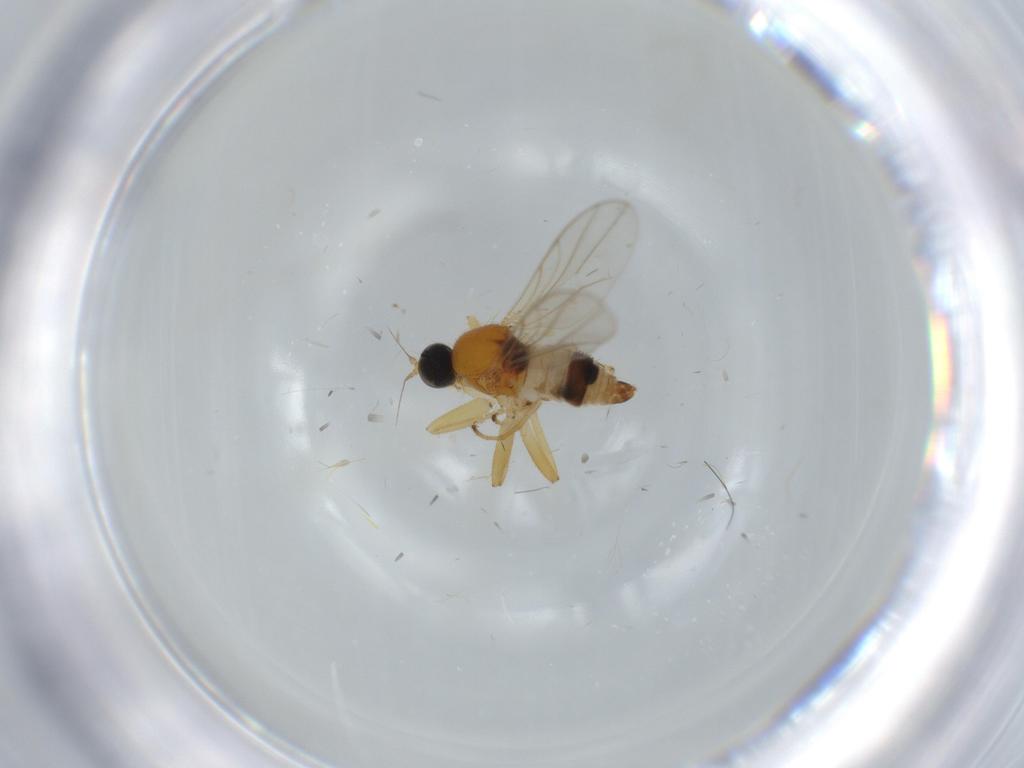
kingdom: Animalia
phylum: Arthropoda
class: Insecta
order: Diptera
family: Hybotidae
